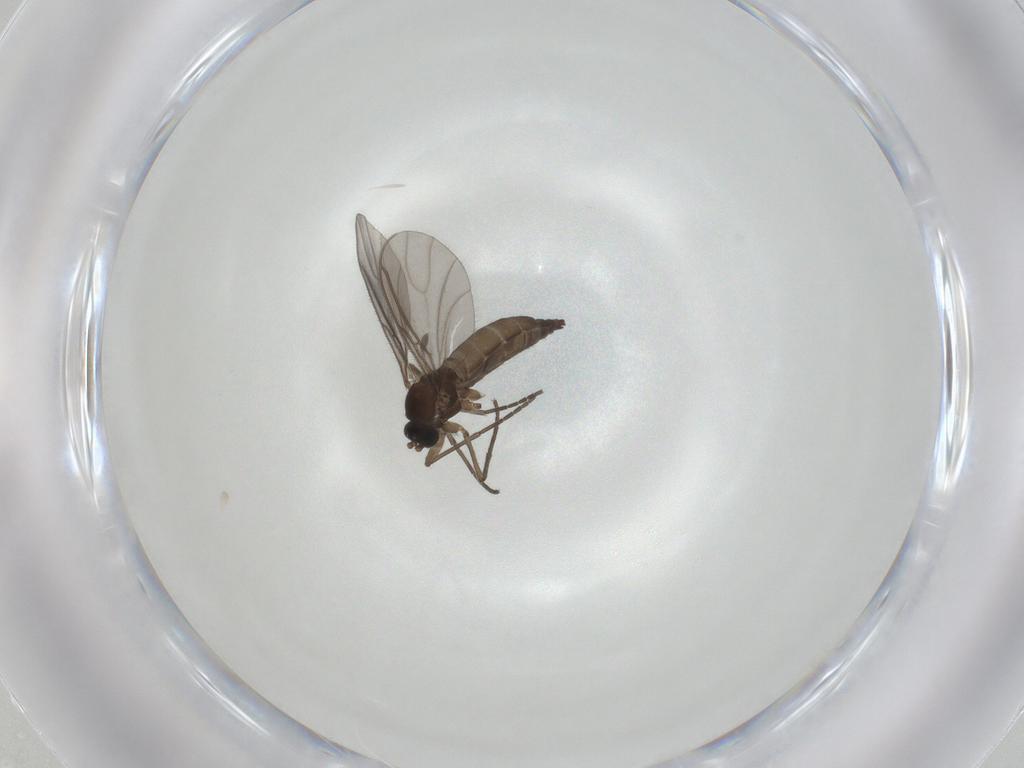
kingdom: Animalia
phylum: Arthropoda
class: Insecta
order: Diptera
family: Sciaridae
